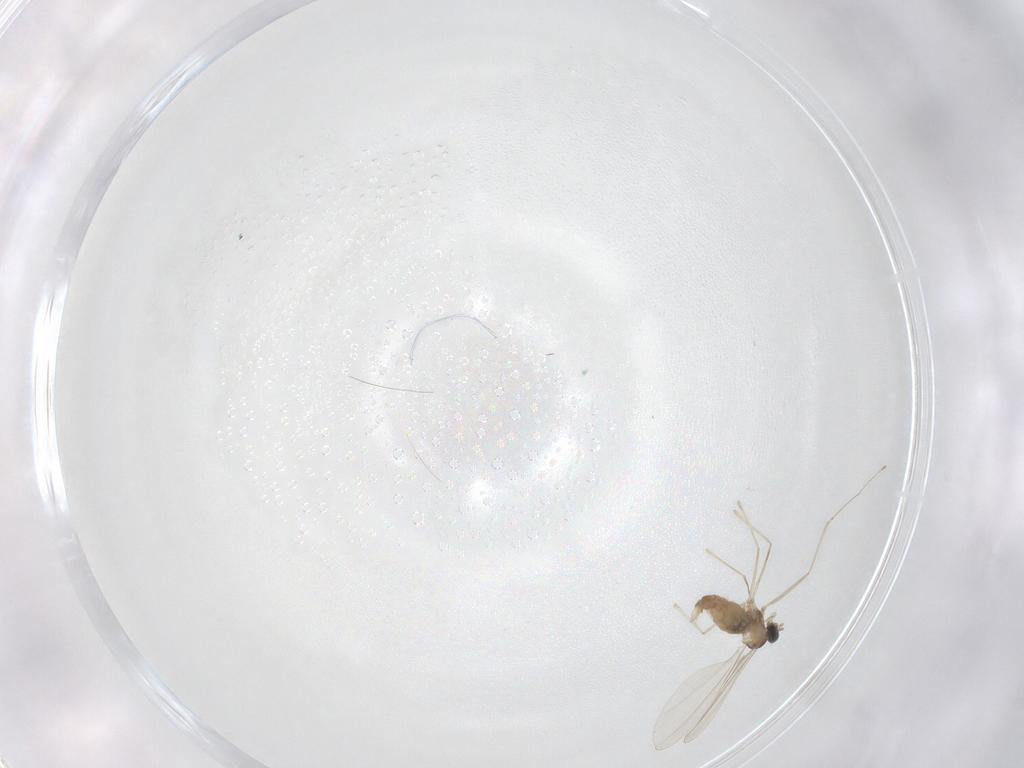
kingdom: Animalia
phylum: Arthropoda
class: Insecta
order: Diptera
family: Cecidomyiidae
